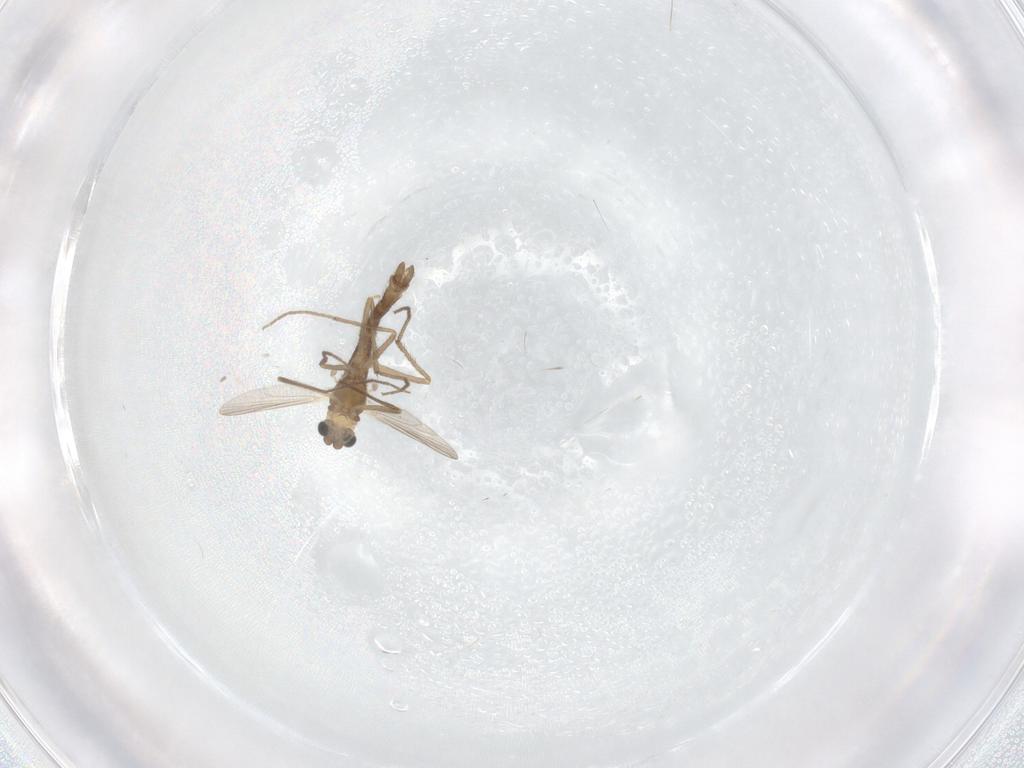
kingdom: Animalia
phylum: Arthropoda
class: Insecta
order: Diptera
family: Chironomidae
